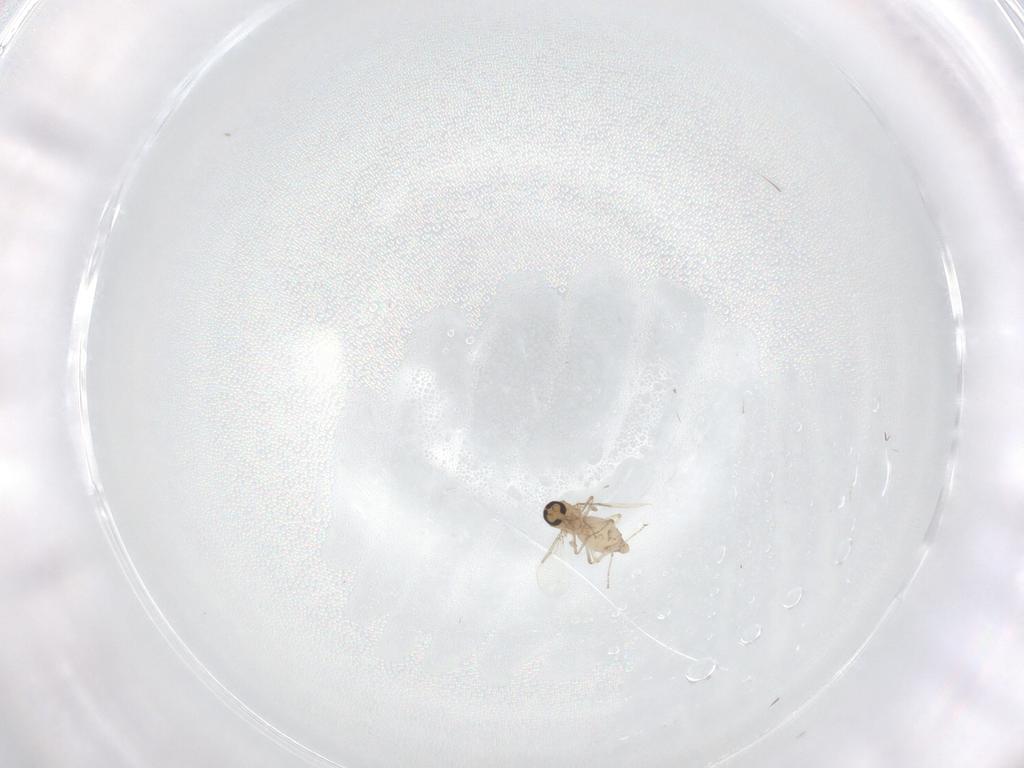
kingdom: Animalia
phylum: Arthropoda
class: Insecta
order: Diptera
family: Ceratopogonidae
